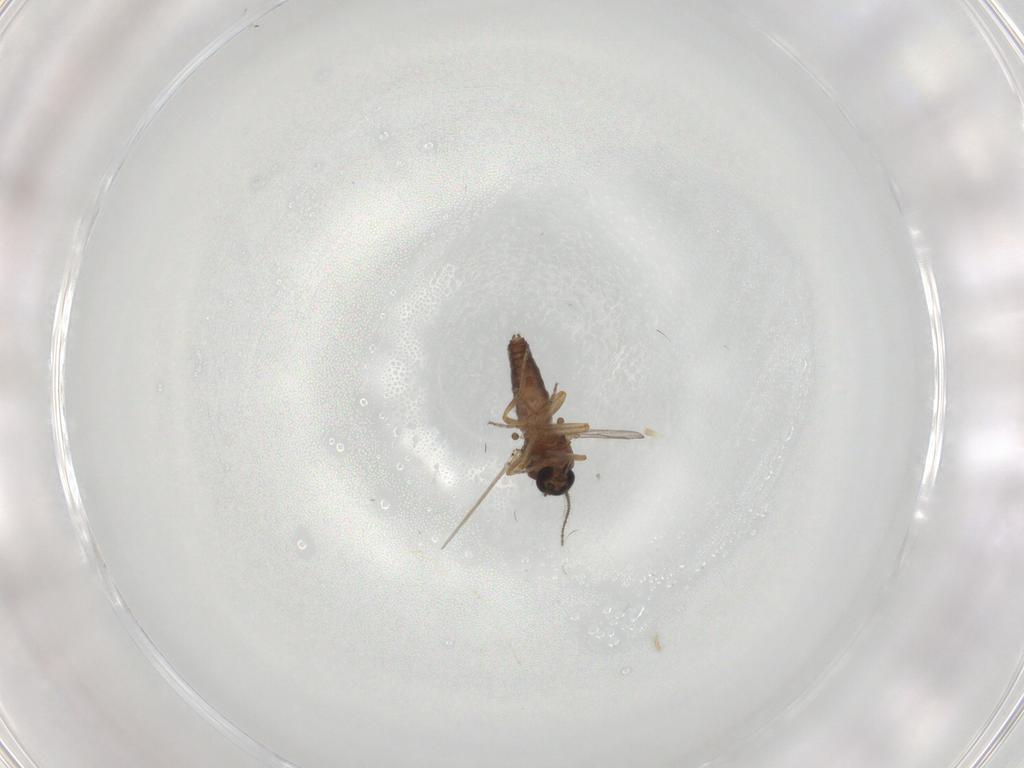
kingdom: Animalia
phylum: Arthropoda
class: Insecta
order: Diptera
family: Ceratopogonidae
